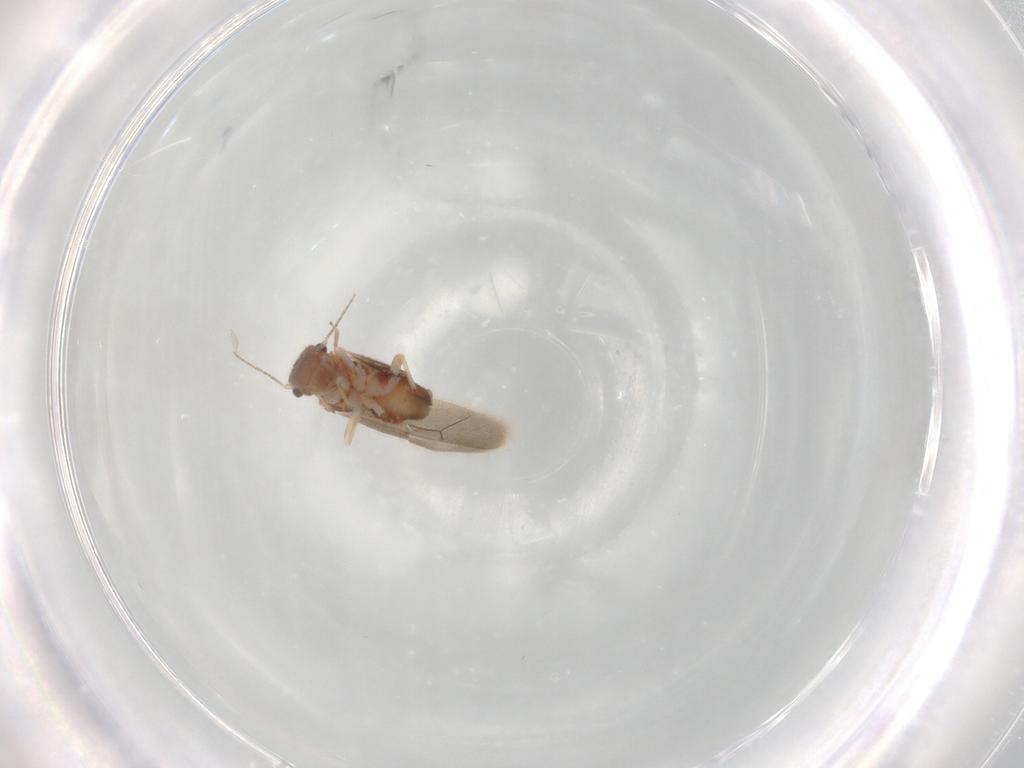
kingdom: Animalia
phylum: Arthropoda
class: Insecta
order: Psocodea
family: Archipsocidae
